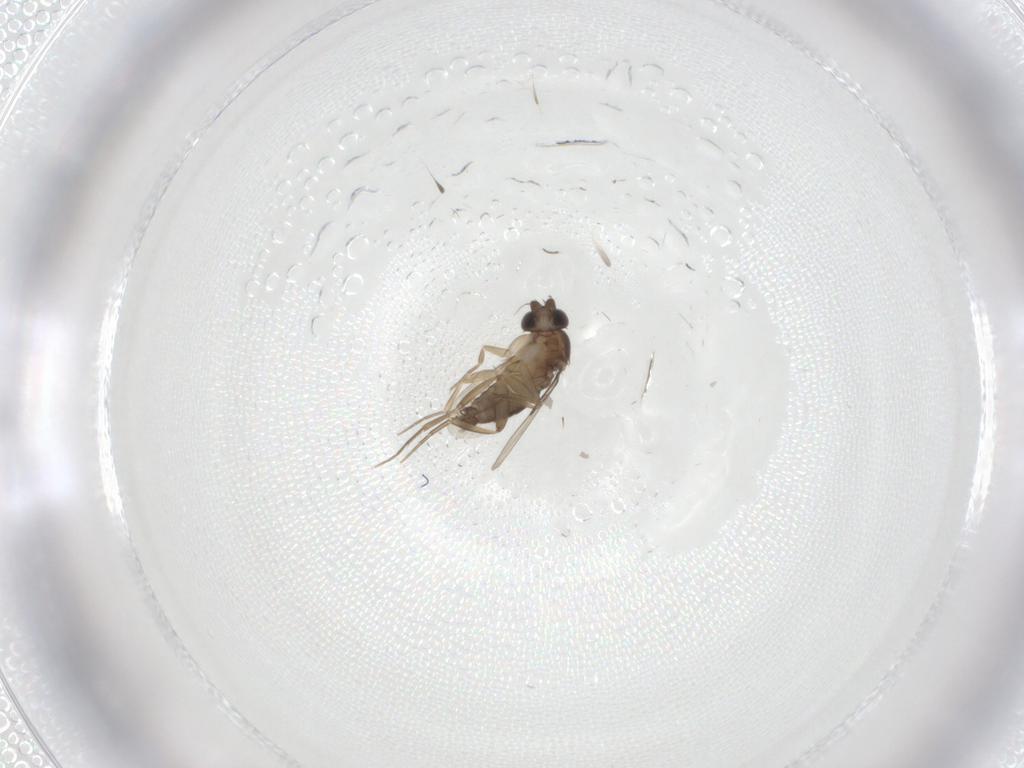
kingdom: Animalia
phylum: Arthropoda
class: Insecta
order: Diptera
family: Phoridae
